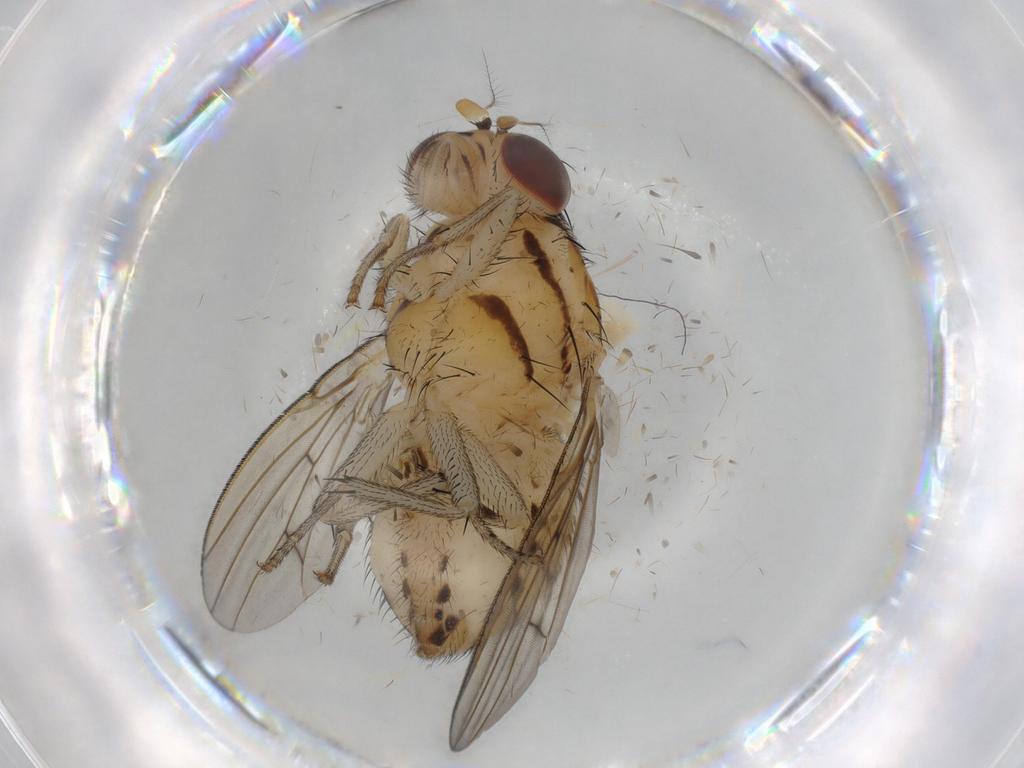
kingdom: Animalia
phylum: Arthropoda
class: Insecta
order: Diptera
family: Lauxaniidae
